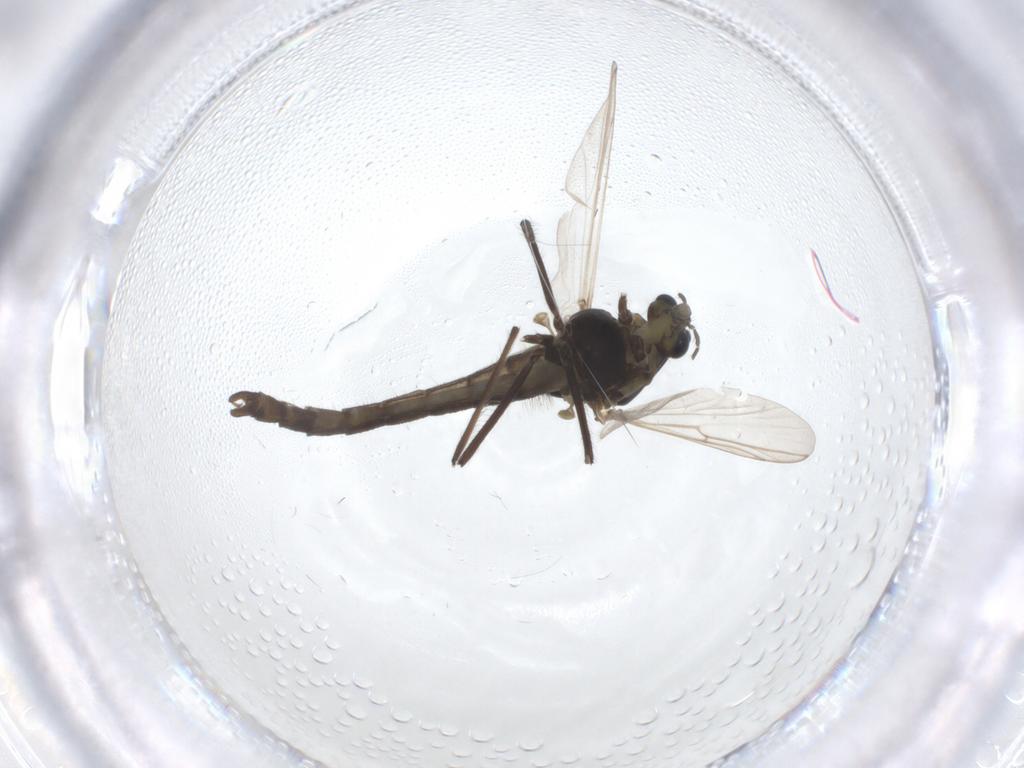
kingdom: Animalia
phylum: Arthropoda
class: Insecta
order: Diptera
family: Chironomidae
